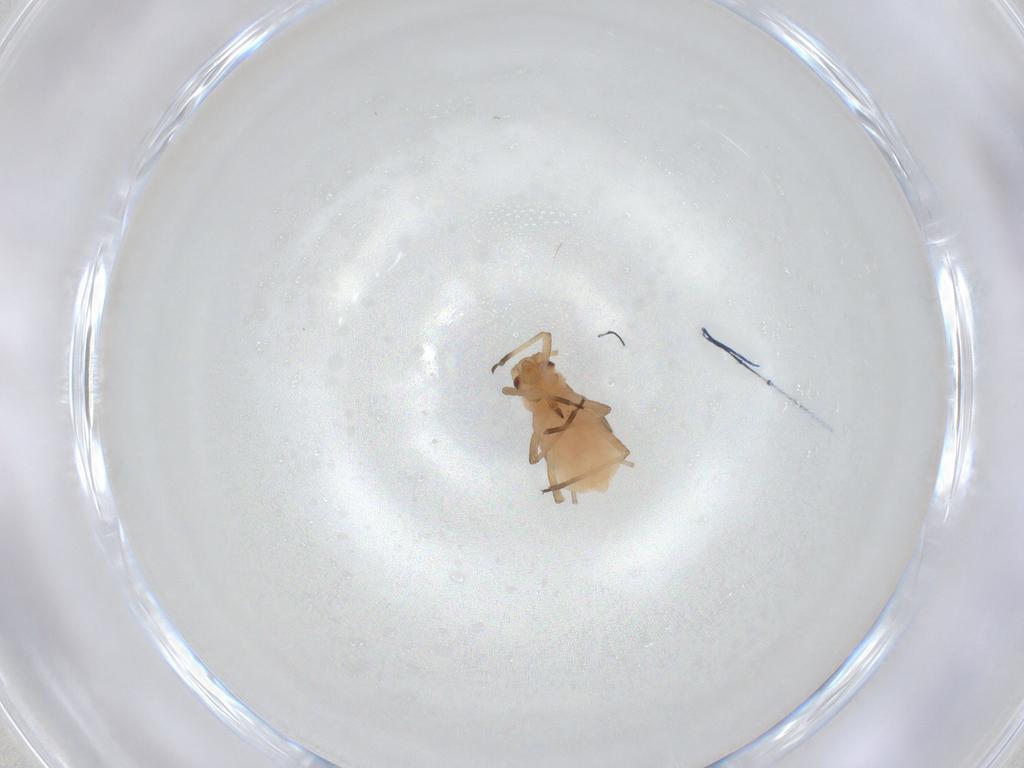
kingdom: Animalia
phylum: Arthropoda
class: Insecta
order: Hemiptera
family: Aphididae
